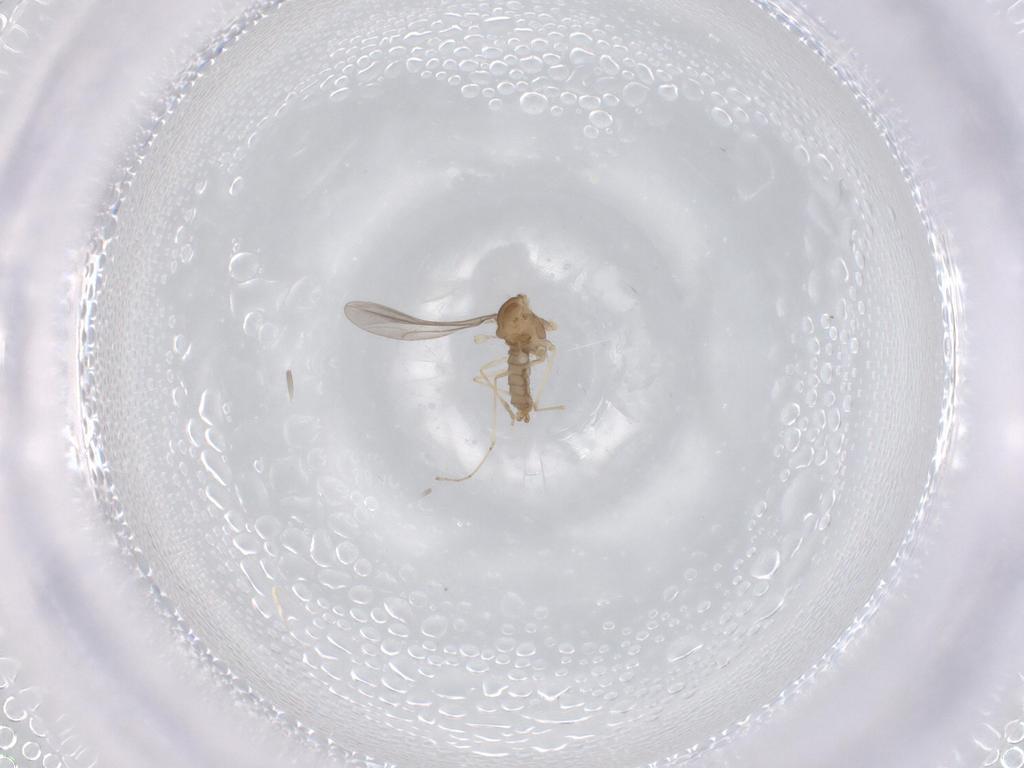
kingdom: Animalia
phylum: Arthropoda
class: Insecta
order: Diptera
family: Cecidomyiidae
